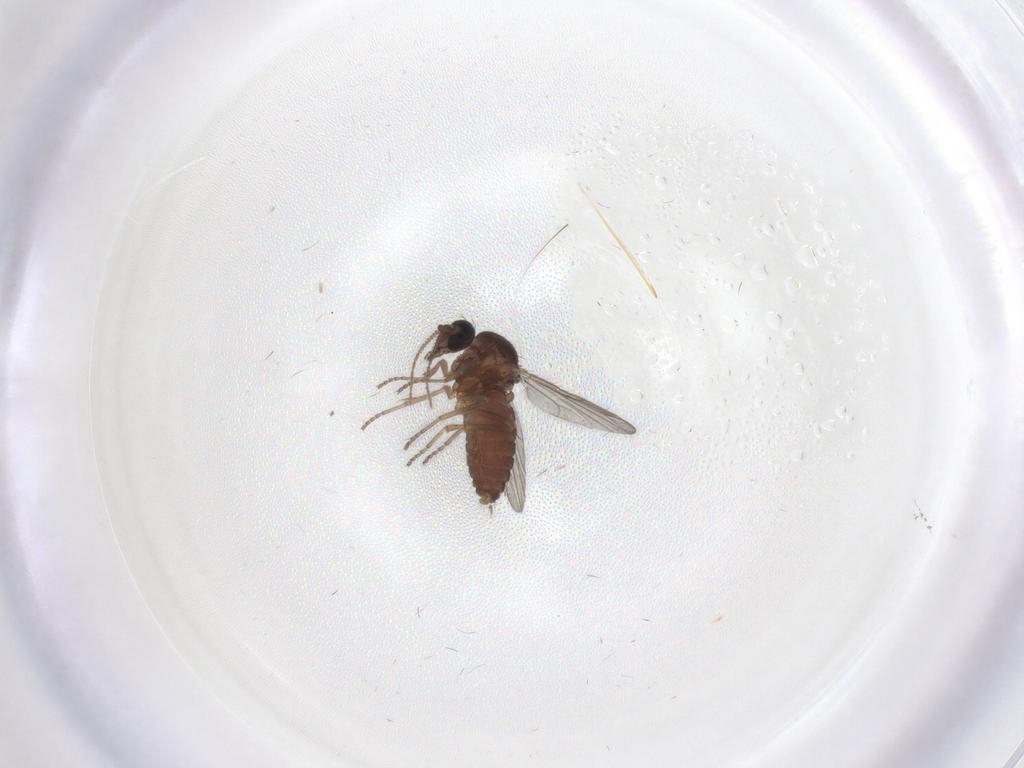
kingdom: Animalia
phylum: Arthropoda
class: Insecta
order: Diptera
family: Ceratopogonidae
